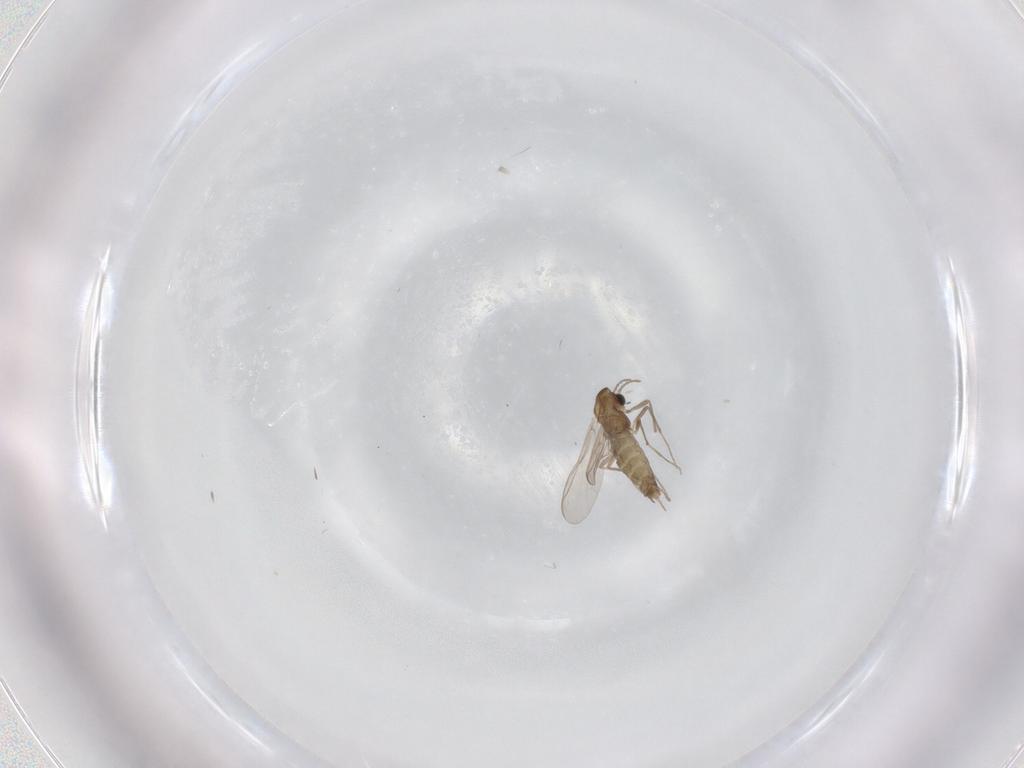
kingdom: Animalia
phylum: Arthropoda
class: Insecta
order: Diptera
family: Chironomidae
